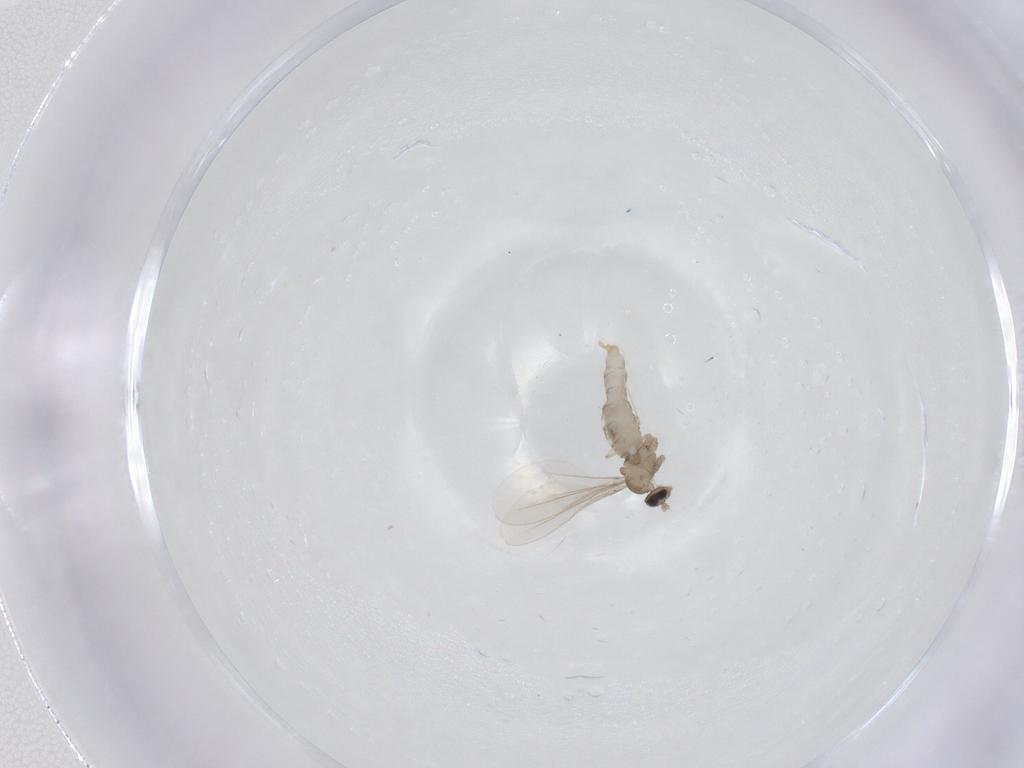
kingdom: Animalia
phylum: Arthropoda
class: Insecta
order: Diptera
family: Cecidomyiidae
